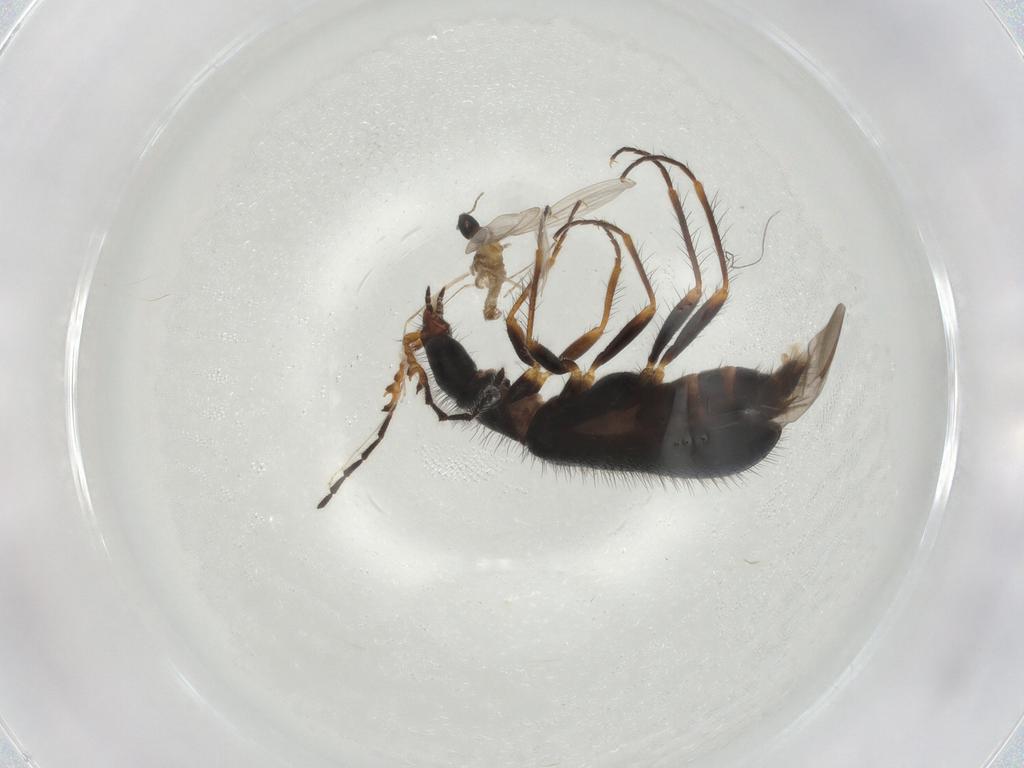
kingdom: Animalia
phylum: Arthropoda
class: Insecta
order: Coleoptera
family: Melyridae
